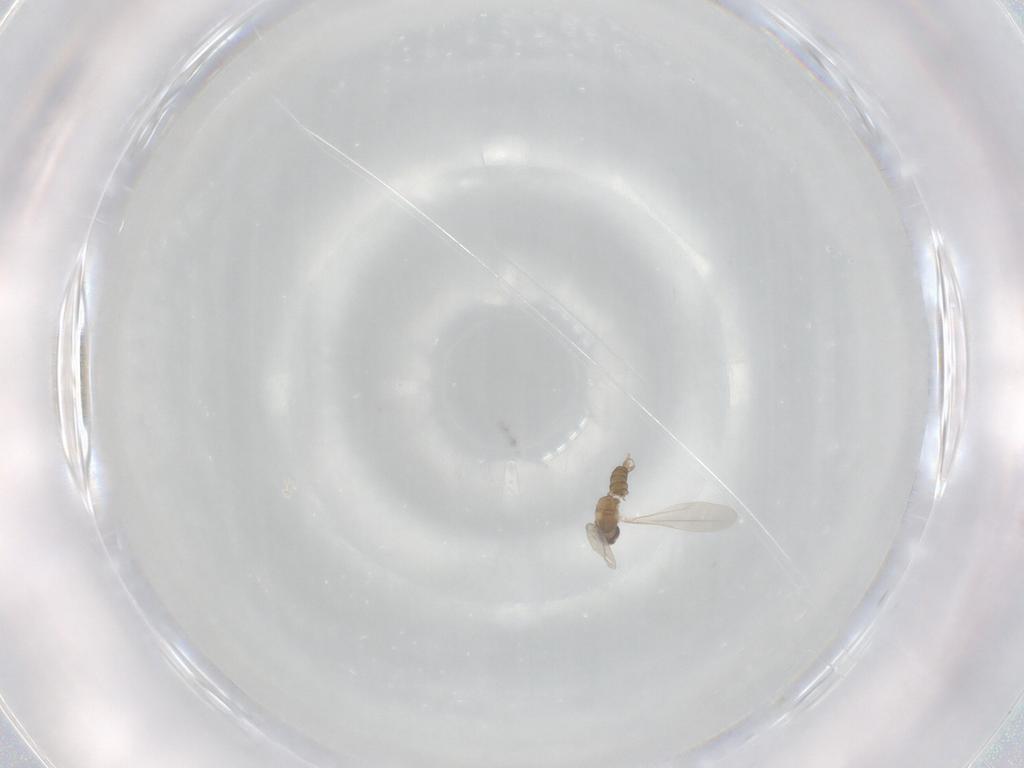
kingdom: Animalia
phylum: Arthropoda
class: Insecta
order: Diptera
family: Cecidomyiidae
